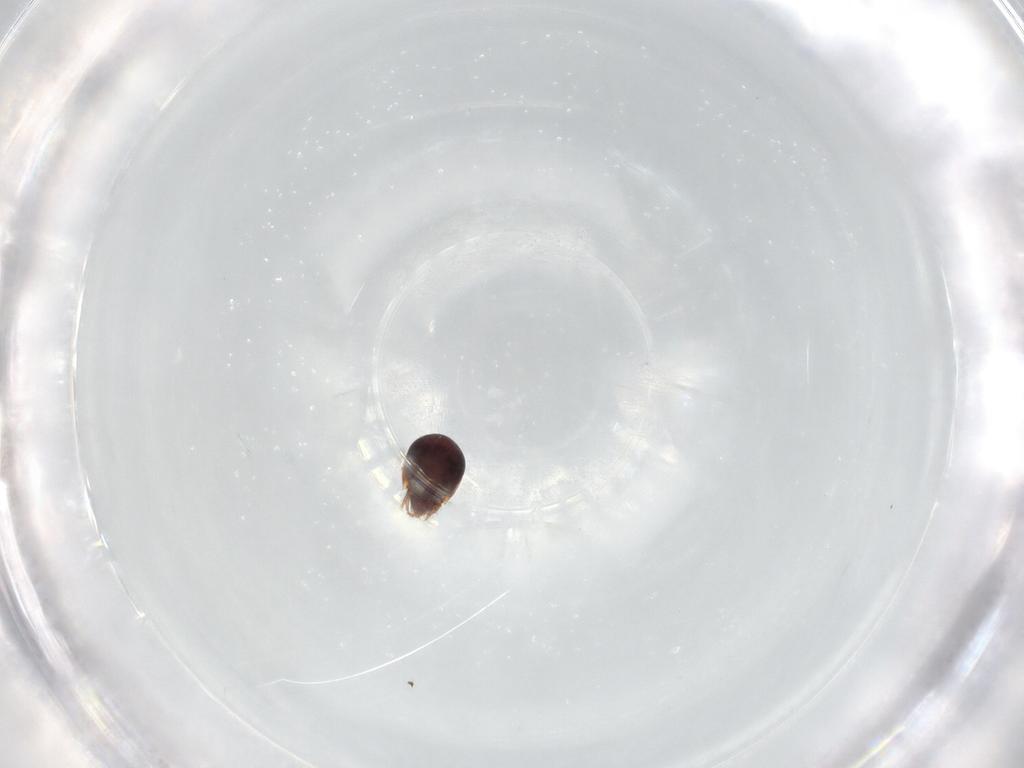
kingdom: Animalia
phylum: Arthropoda
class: Arachnida
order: Sarcoptiformes
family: Humerobatidae
